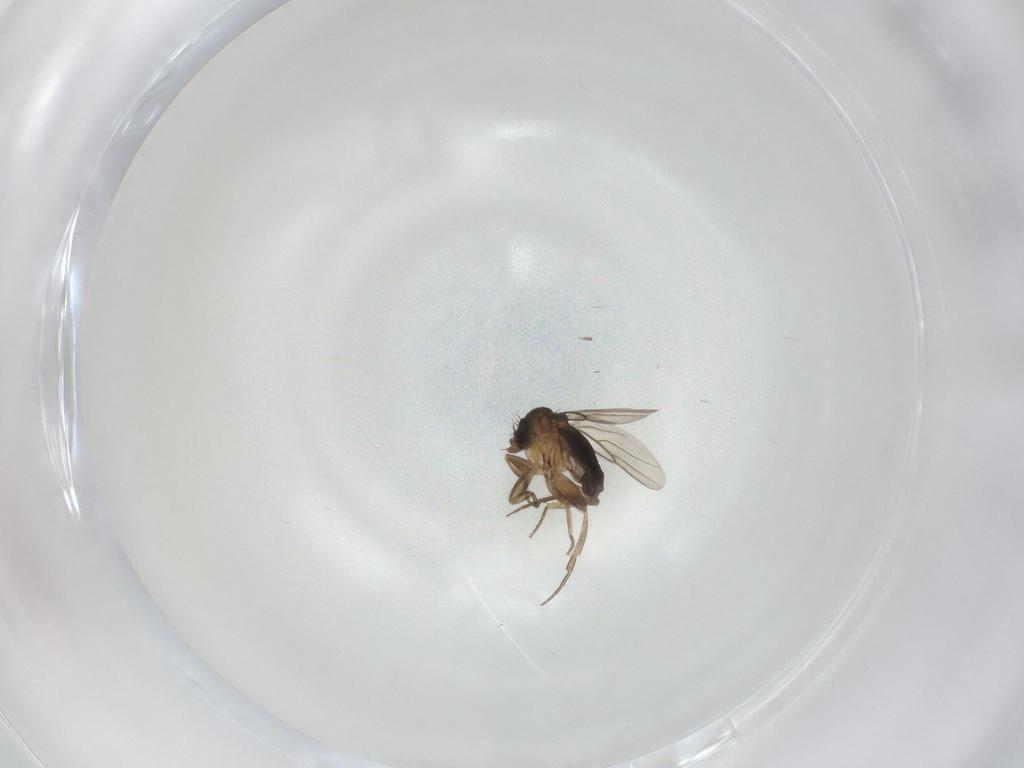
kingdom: Animalia
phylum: Arthropoda
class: Insecta
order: Diptera
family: Phoridae
